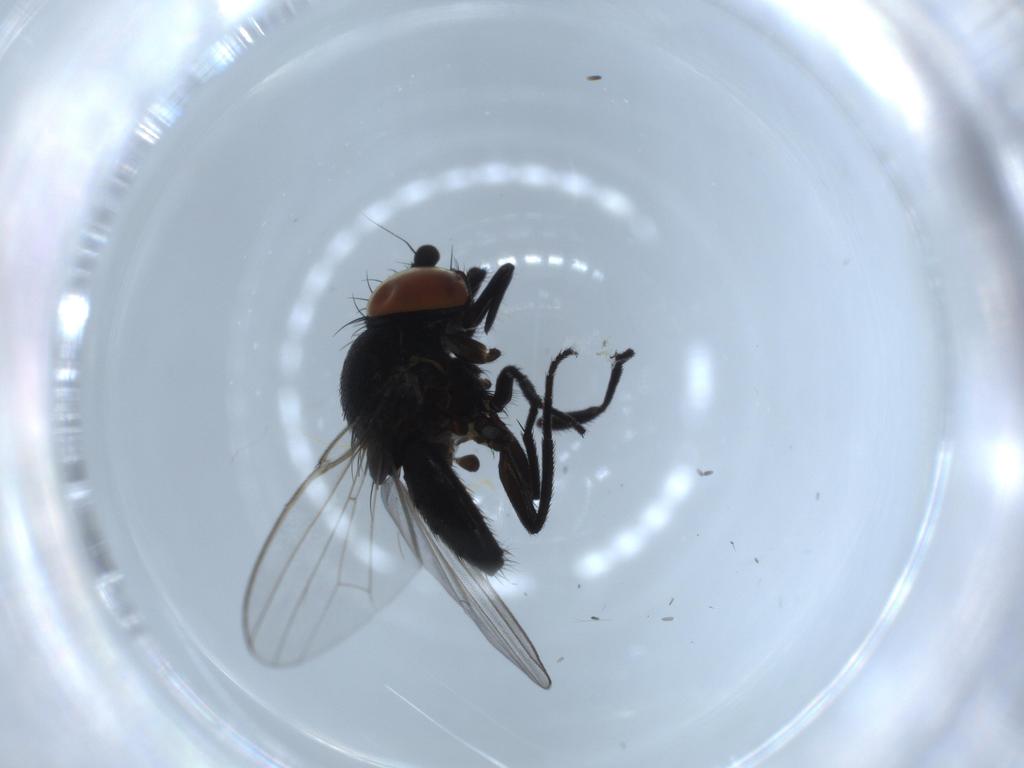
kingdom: Animalia
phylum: Arthropoda
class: Insecta
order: Diptera
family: Milichiidae
